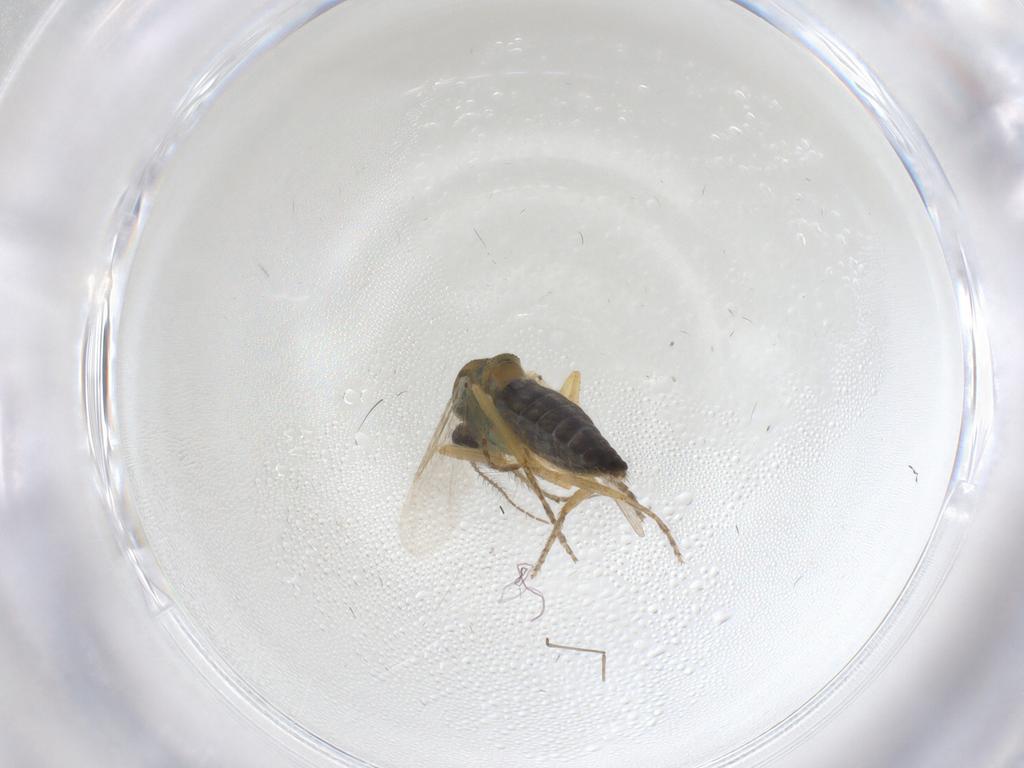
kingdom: Animalia
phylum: Arthropoda
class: Insecta
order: Diptera
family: Ceratopogonidae
